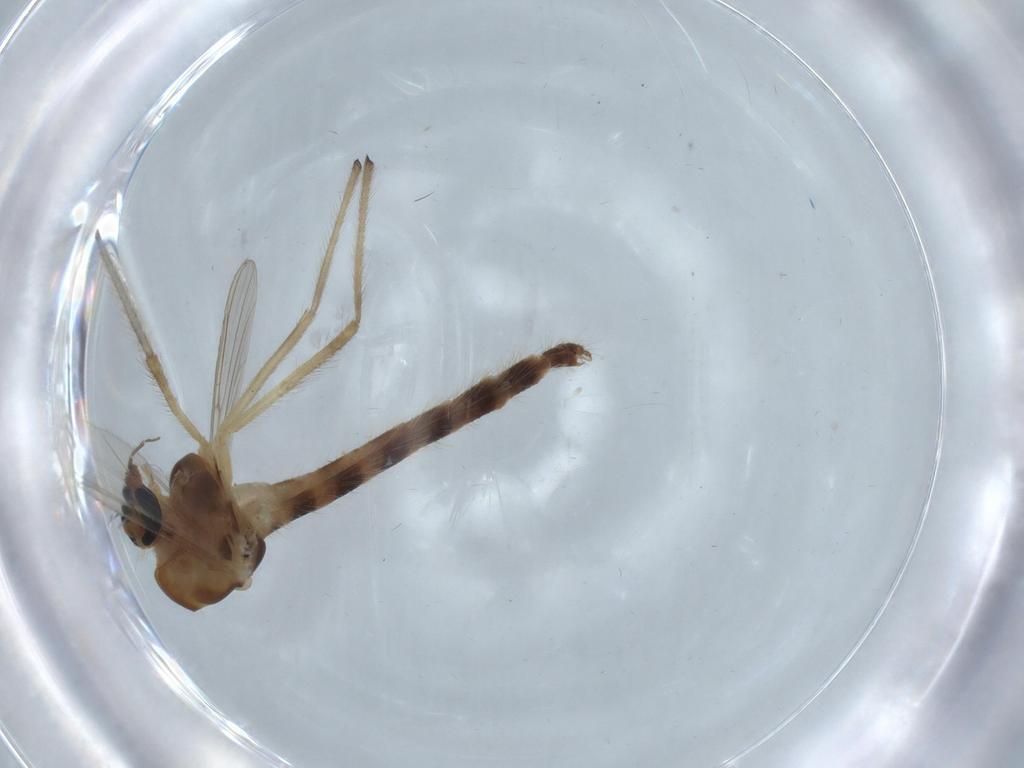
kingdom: Animalia
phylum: Arthropoda
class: Insecta
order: Diptera
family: Chironomidae
